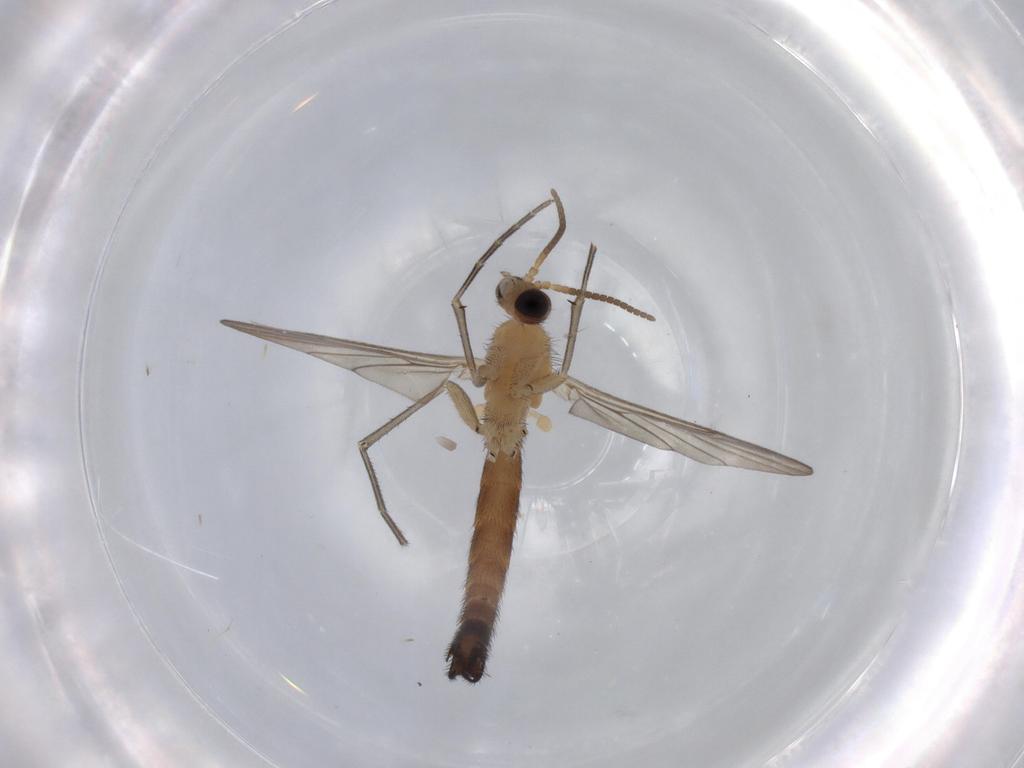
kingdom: Animalia
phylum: Arthropoda
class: Insecta
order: Diptera
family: Keroplatidae
